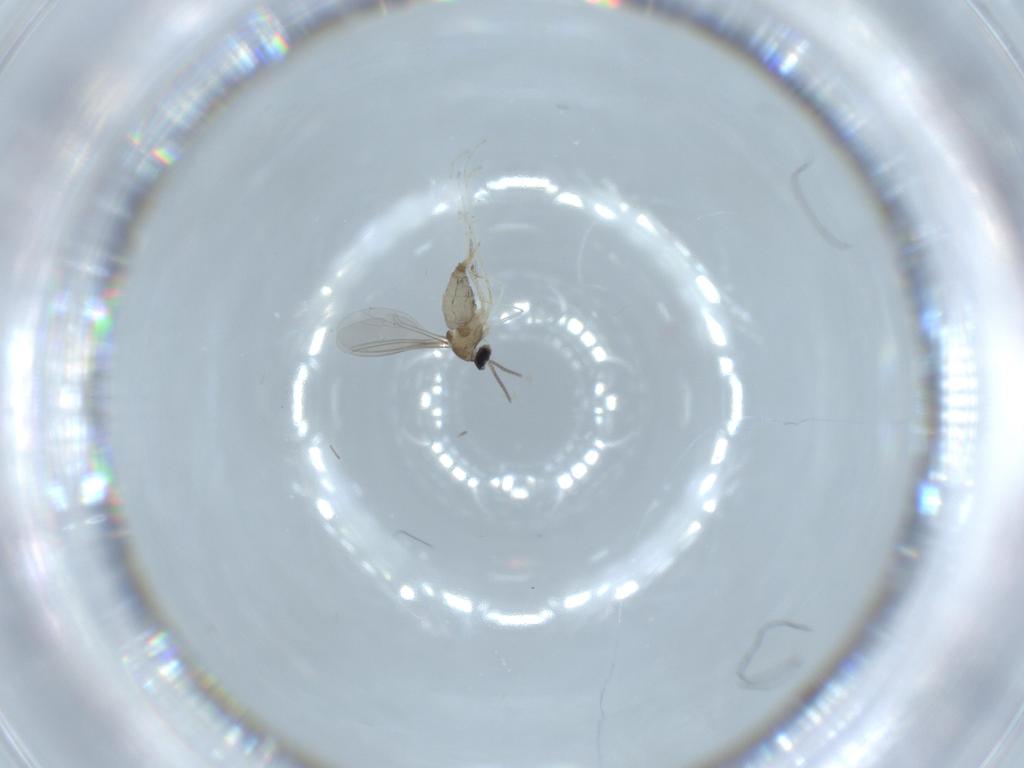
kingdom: Animalia
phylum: Arthropoda
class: Insecta
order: Diptera
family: Cecidomyiidae
